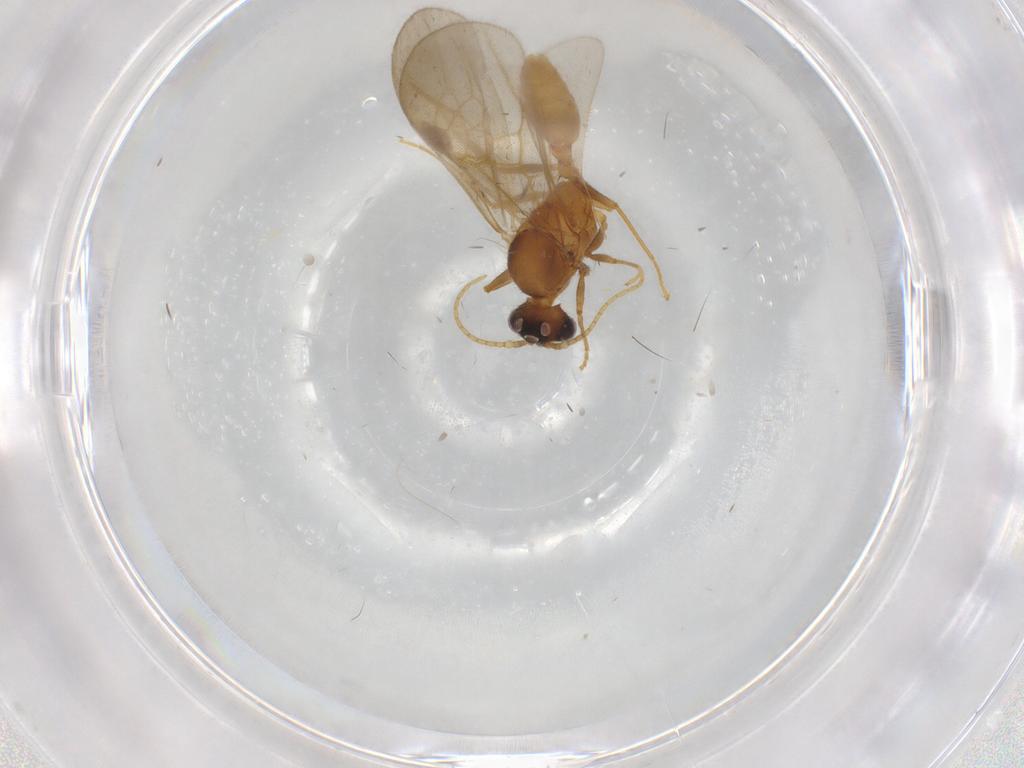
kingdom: Animalia
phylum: Arthropoda
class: Insecta
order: Hymenoptera
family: Formicidae
